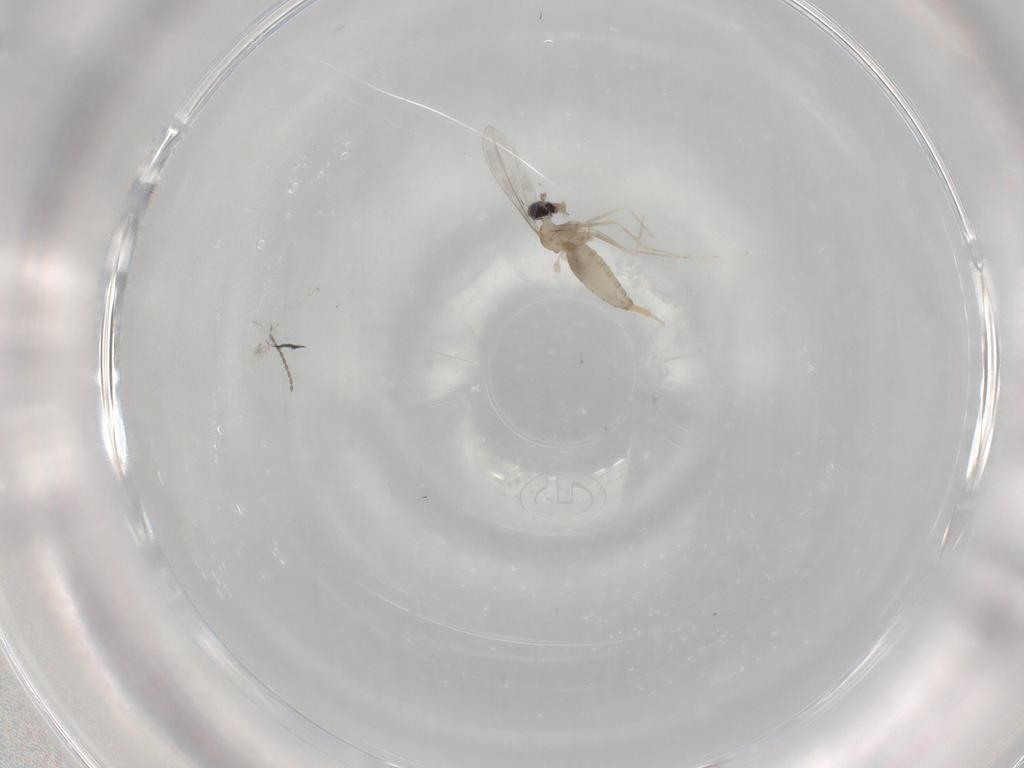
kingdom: Animalia
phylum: Arthropoda
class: Insecta
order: Diptera
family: Cecidomyiidae
